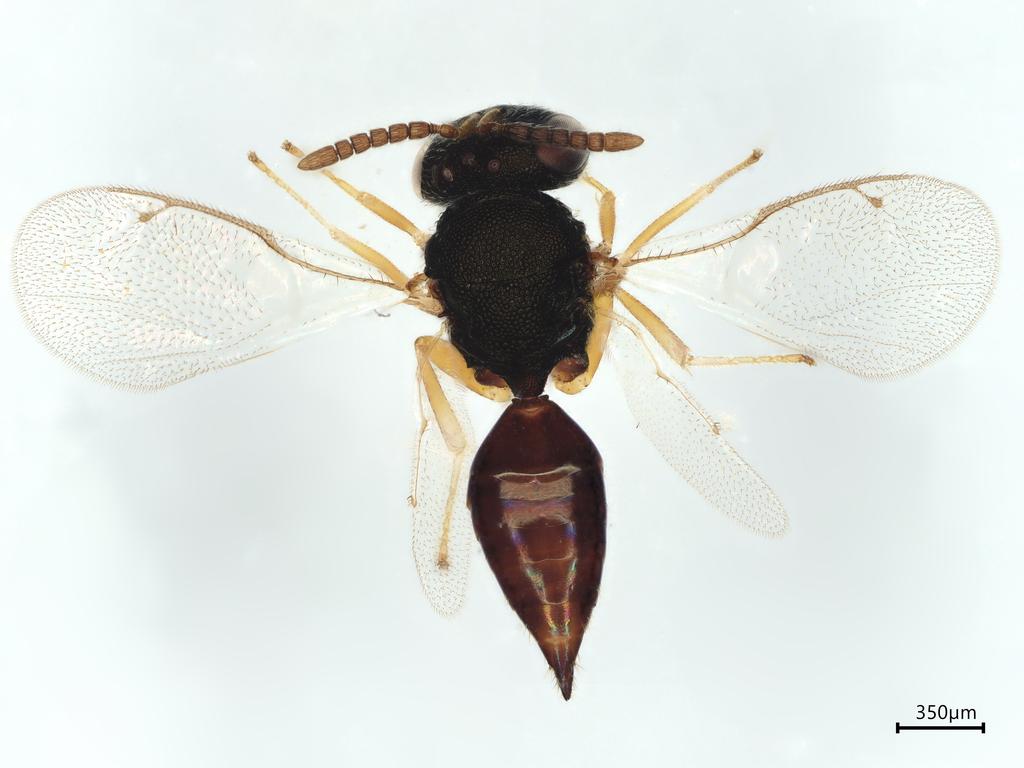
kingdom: Animalia
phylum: Arthropoda
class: Insecta
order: Hymenoptera
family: Pteromalidae
